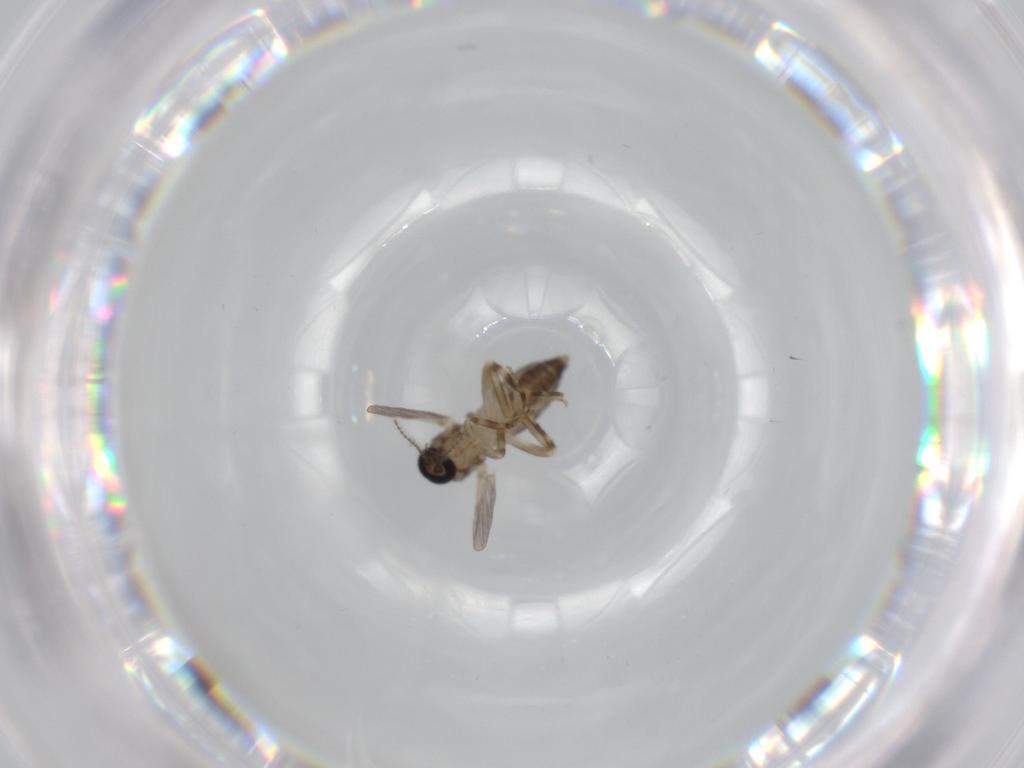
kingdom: Animalia
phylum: Arthropoda
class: Insecta
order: Diptera
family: Ceratopogonidae
